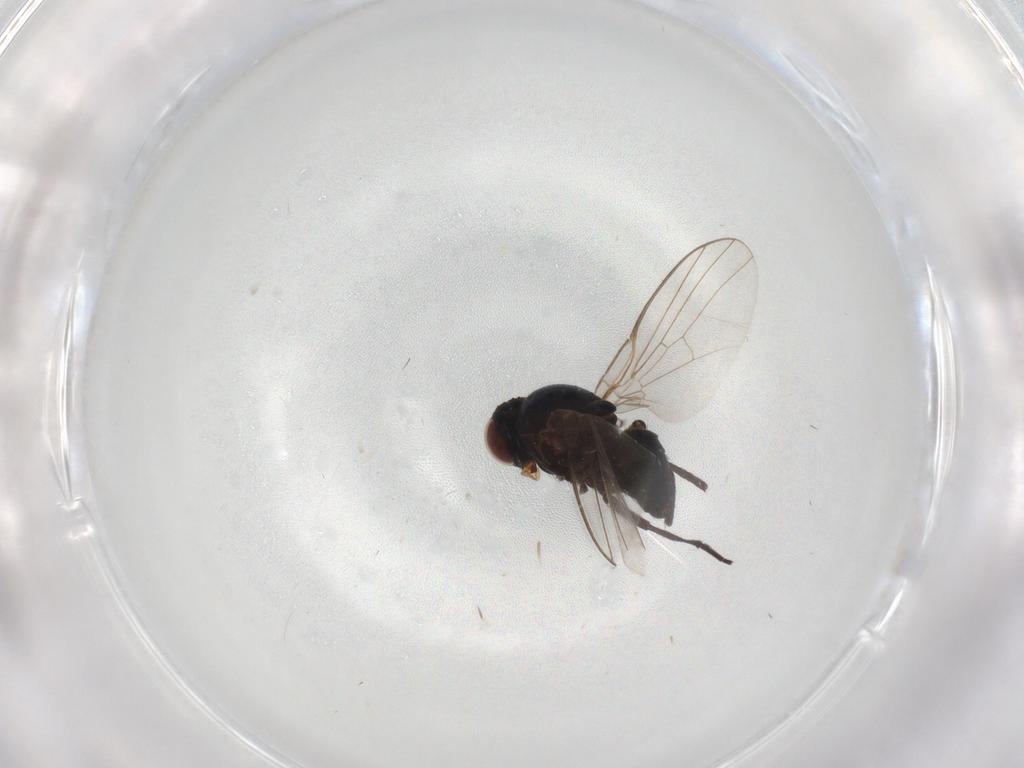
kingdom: Animalia
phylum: Arthropoda
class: Insecta
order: Diptera
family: Agromyzidae
